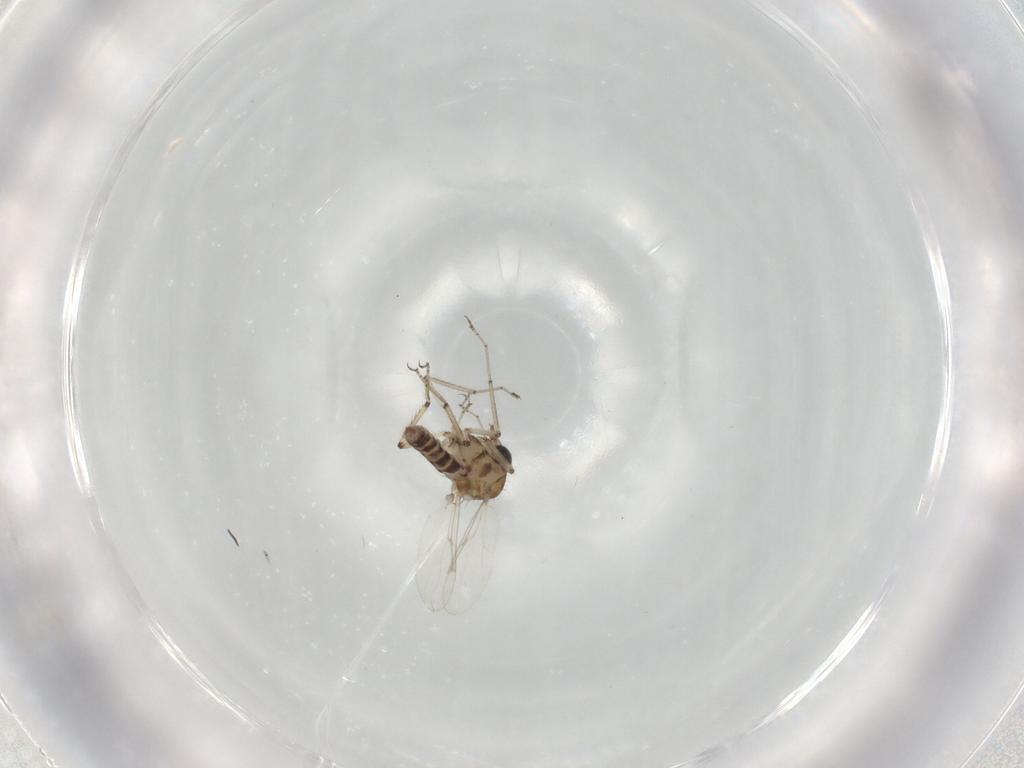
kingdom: Animalia
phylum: Arthropoda
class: Insecta
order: Diptera
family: Ceratopogonidae
